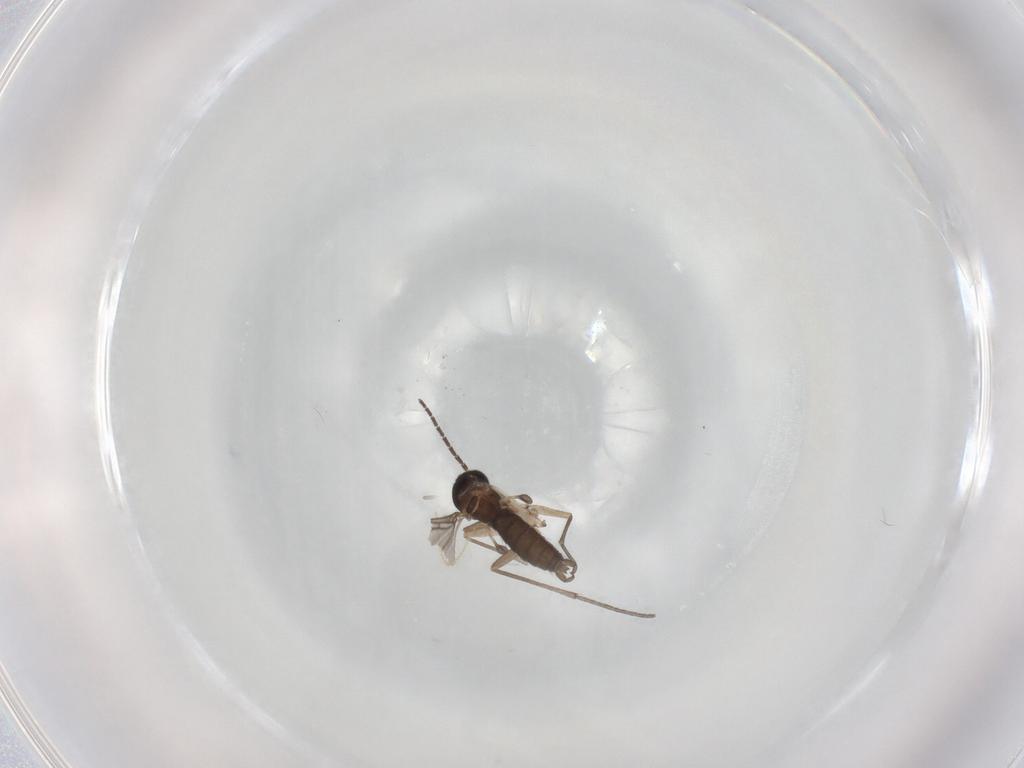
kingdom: Animalia
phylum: Arthropoda
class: Insecta
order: Diptera
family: Sciaridae
